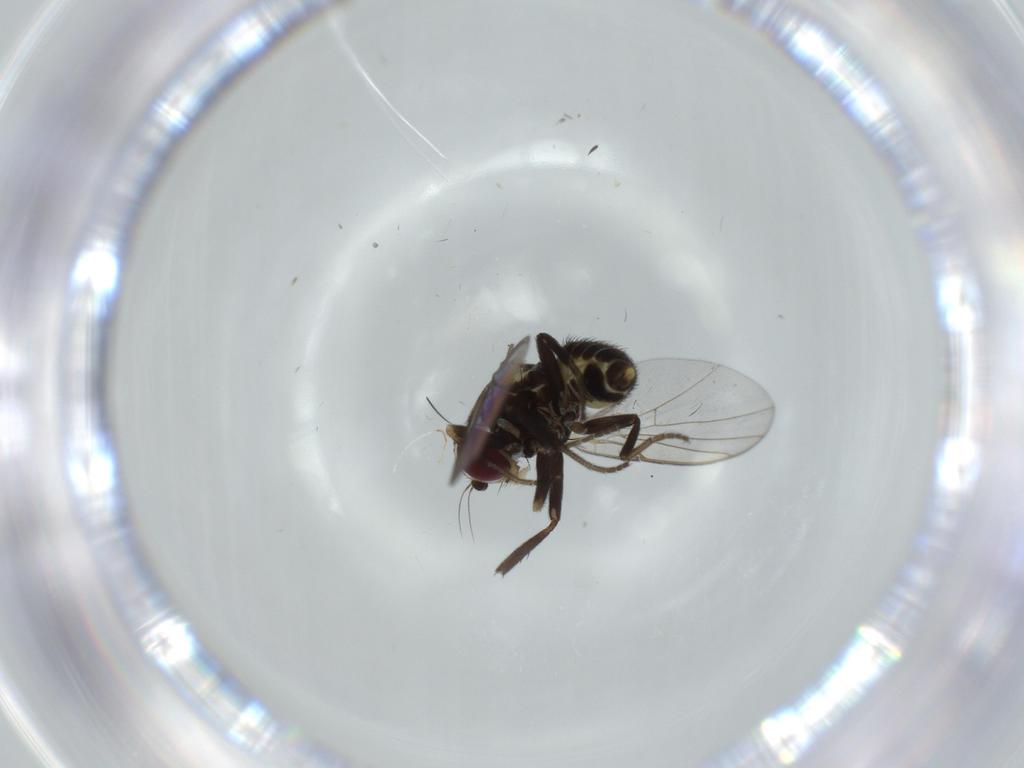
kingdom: Animalia
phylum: Arthropoda
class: Insecta
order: Diptera
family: Agromyzidae
